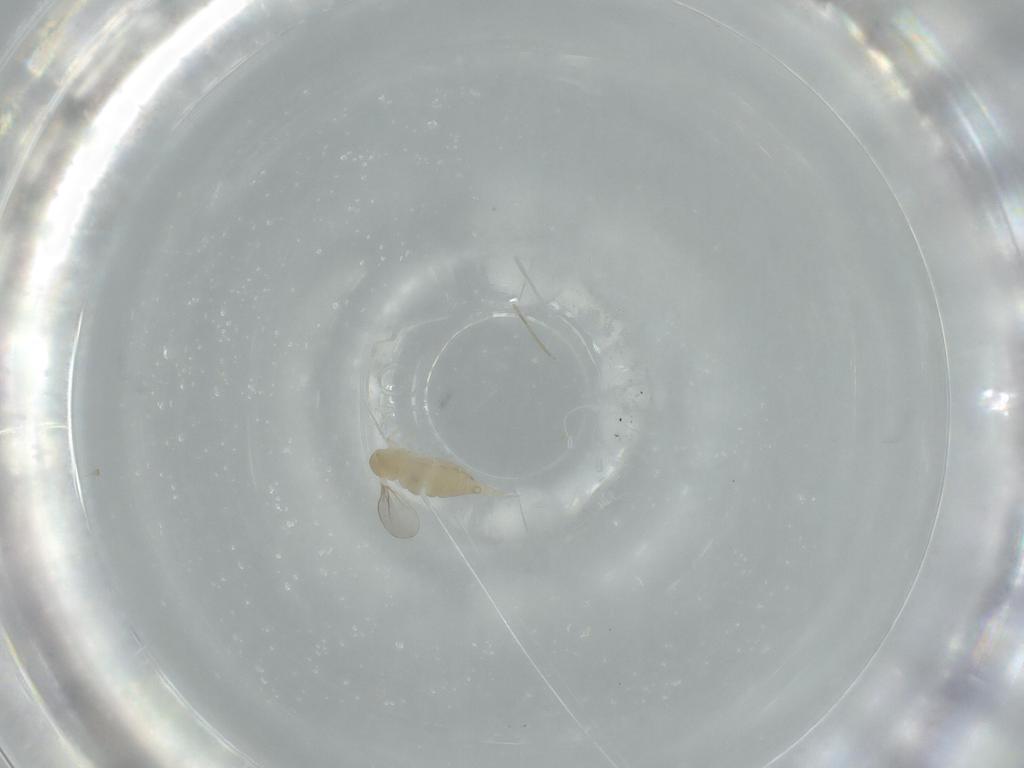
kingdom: Animalia
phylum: Arthropoda
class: Insecta
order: Diptera
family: Cecidomyiidae
